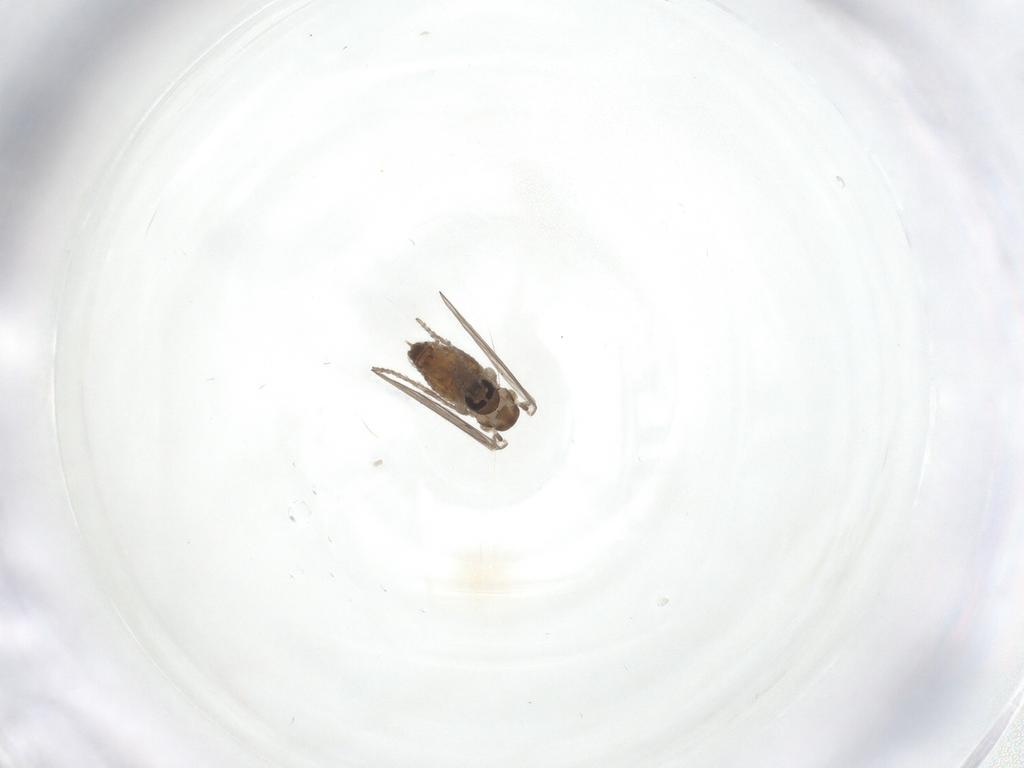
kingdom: Animalia
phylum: Arthropoda
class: Insecta
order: Diptera
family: Psychodidae
